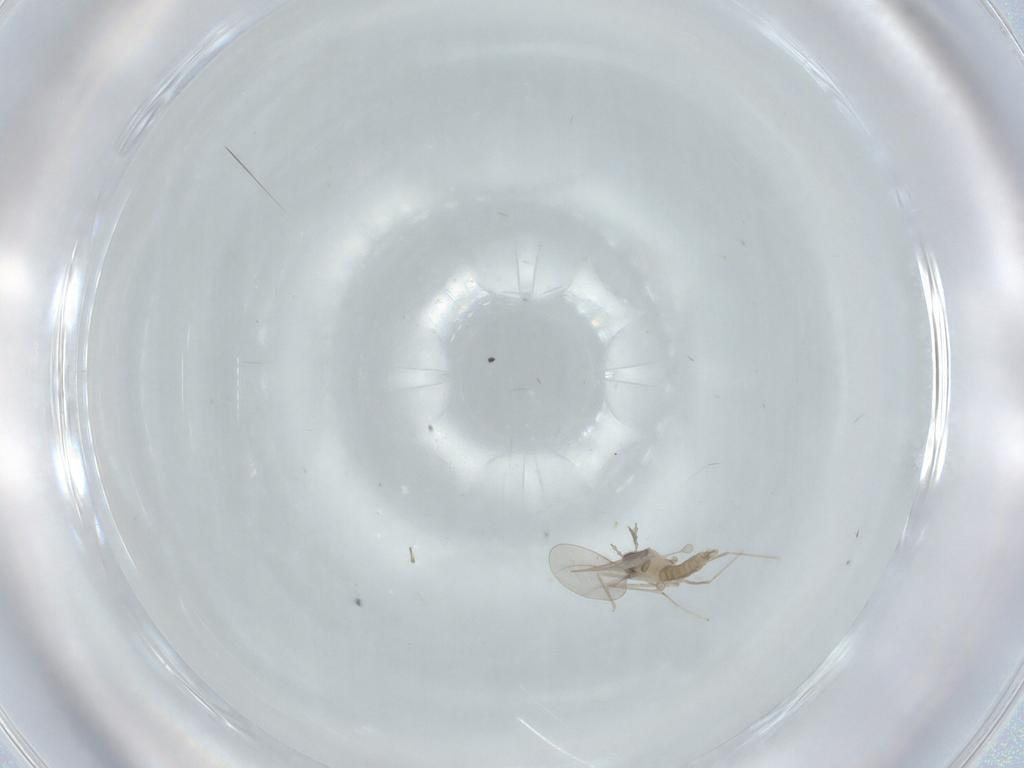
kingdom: Animalia
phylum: Arthropoda
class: Insecta
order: Diptera
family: Cecidomyiidae
